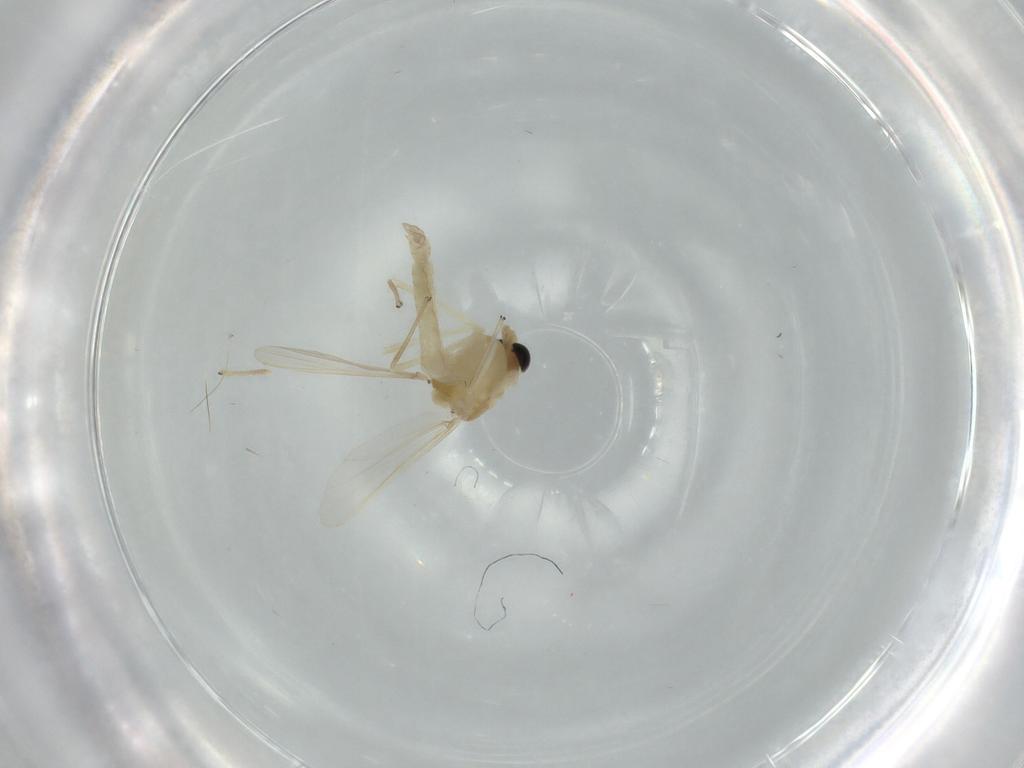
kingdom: Animalia
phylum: Arthropoda
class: Insecta
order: Diptera
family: Chironomidae
